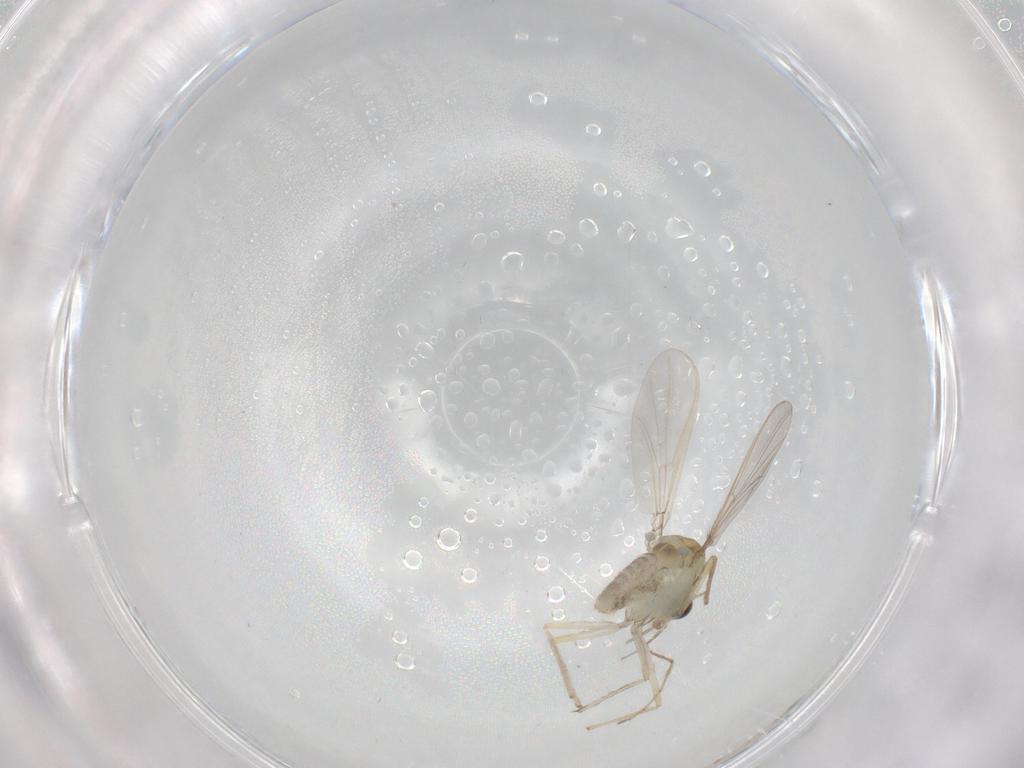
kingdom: Animalia
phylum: Arthropoda
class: Insecta
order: Diptera
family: Chironomidae
